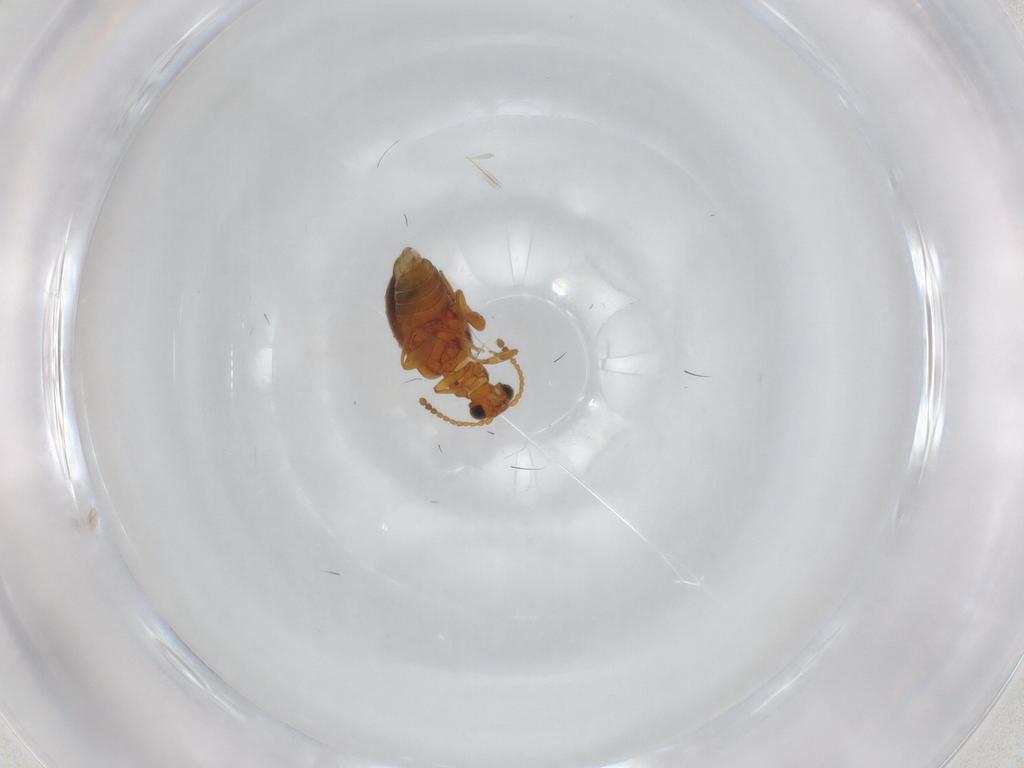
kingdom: Animalia
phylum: Arthropoda
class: Insecta
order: Coleoptera
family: Aderidae
